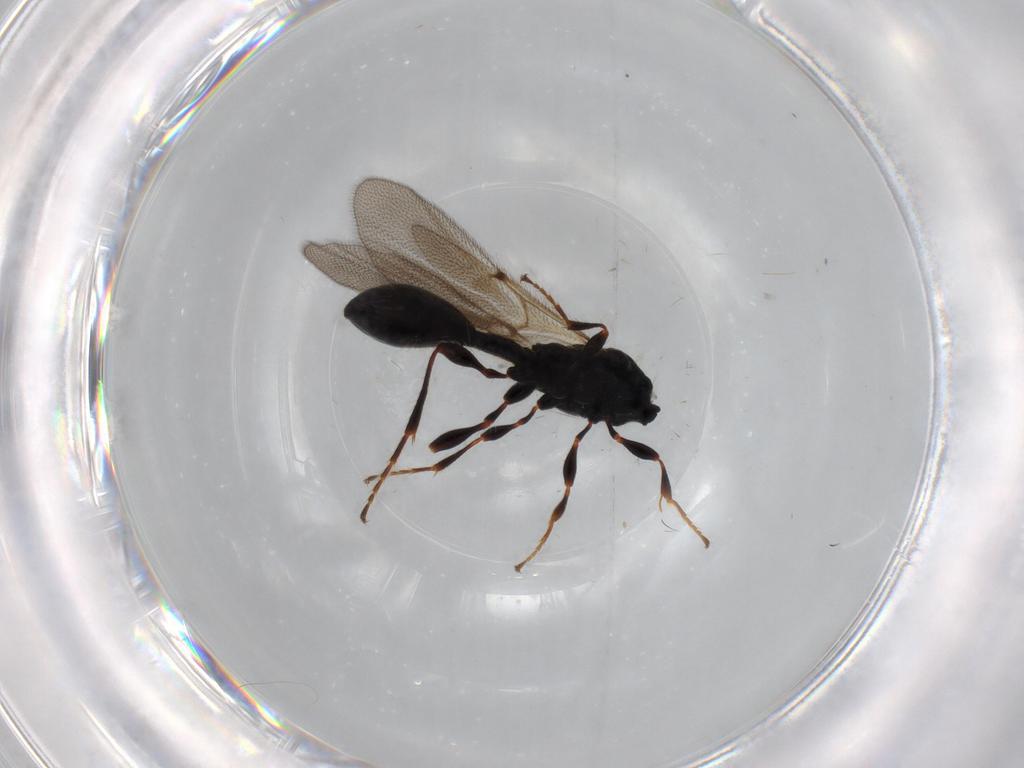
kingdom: Animalia
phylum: Arthropoda
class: Insecta
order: Hymenoptera
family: Diapriidae
